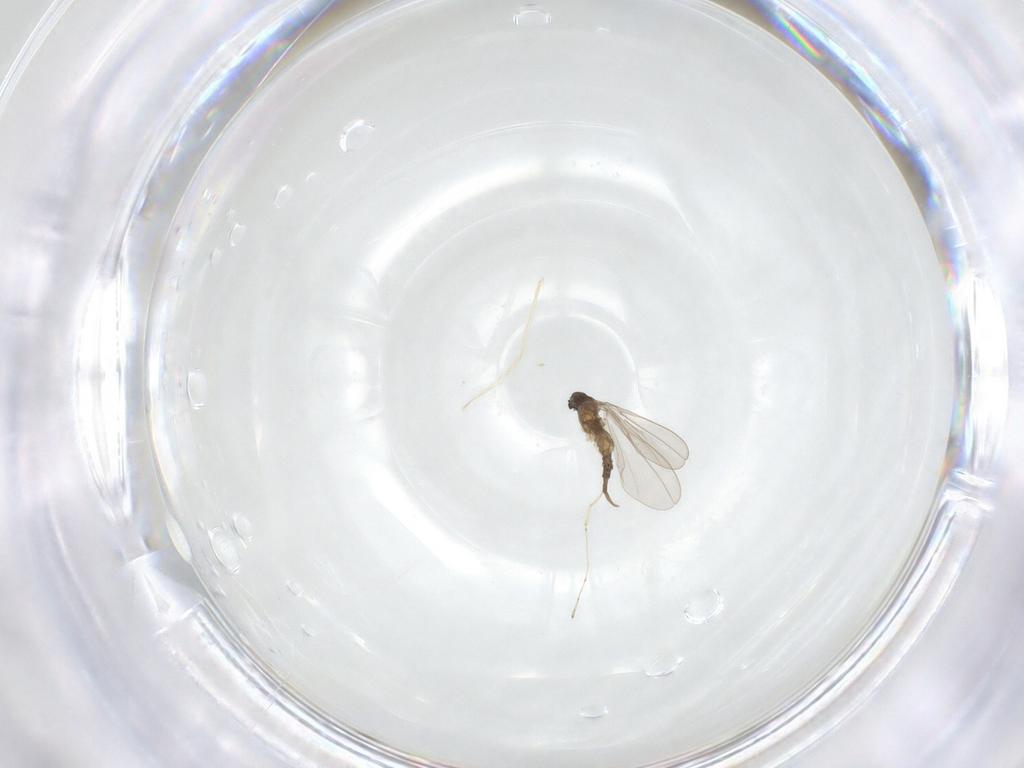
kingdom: Animalia
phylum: Arthropoda
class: Insecta
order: Diptera
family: Cecidomyiidae
